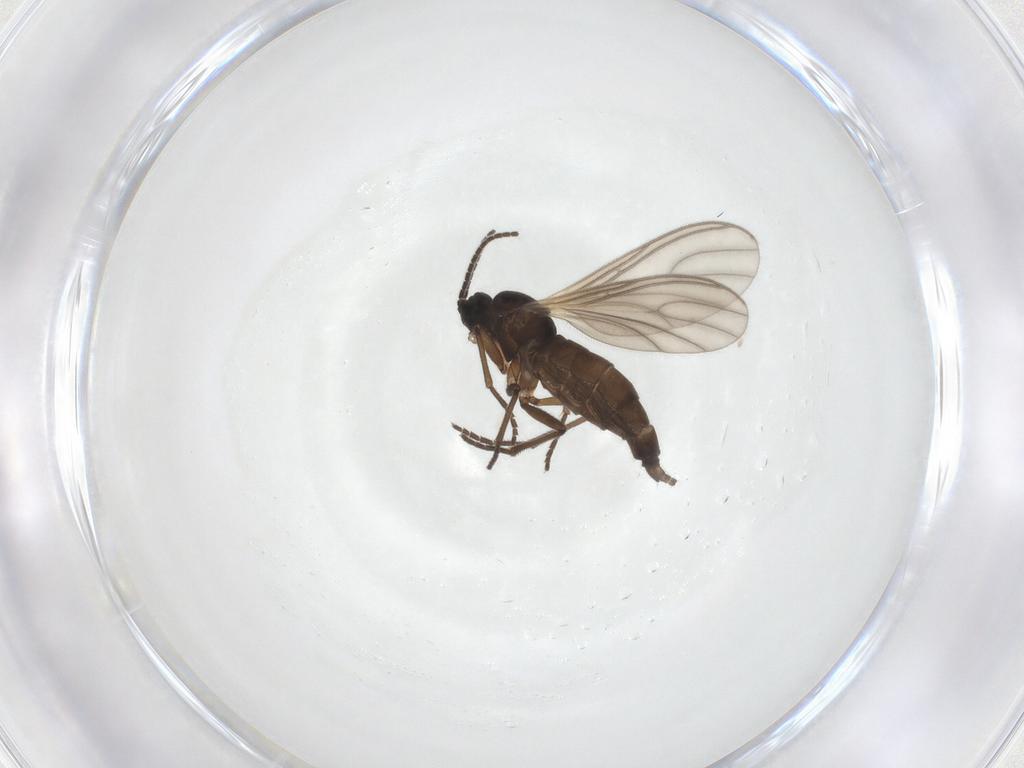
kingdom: Animalia
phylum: Arthropoda
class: Insecta
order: Diptera
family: Sciaridae
